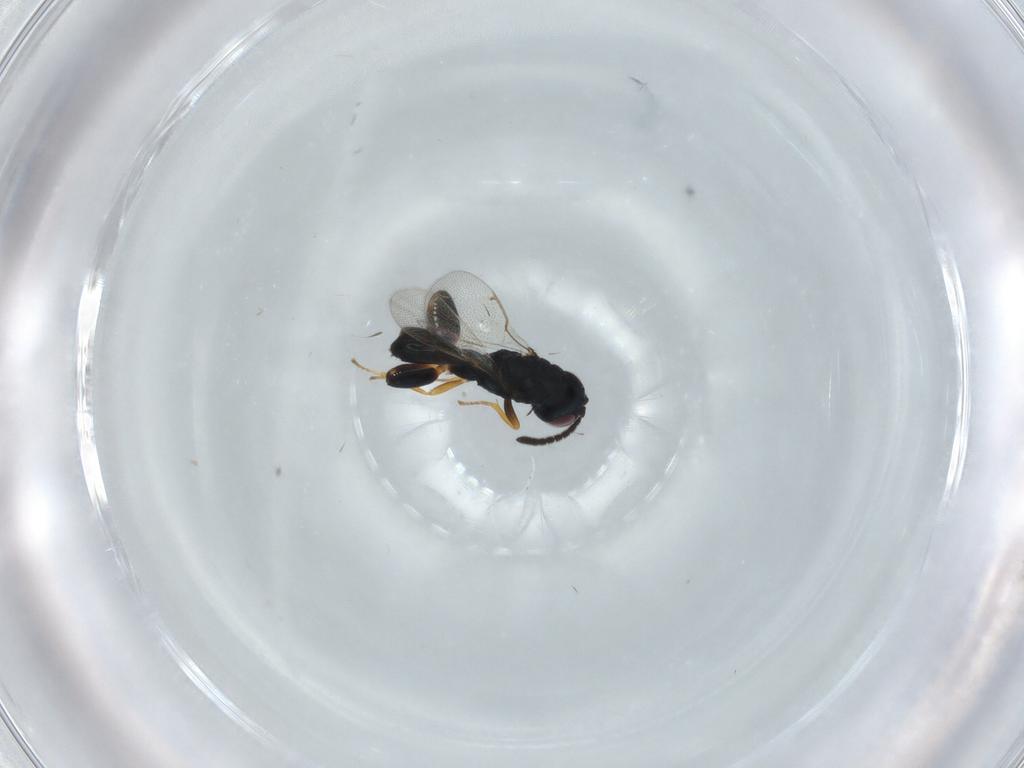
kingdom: Animalia
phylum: Arthropoda
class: Insecta
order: Hymenoptera
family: Torymidae
